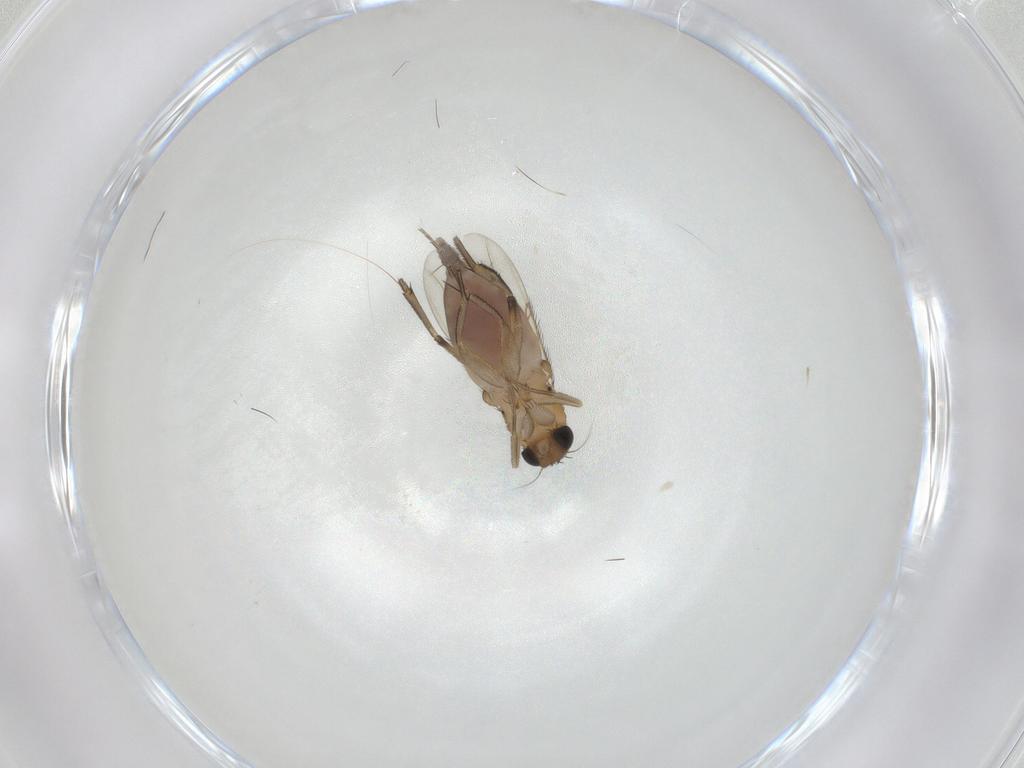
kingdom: Animalia
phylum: Arthropoda
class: Insecta
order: Diptera
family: Phoridae
